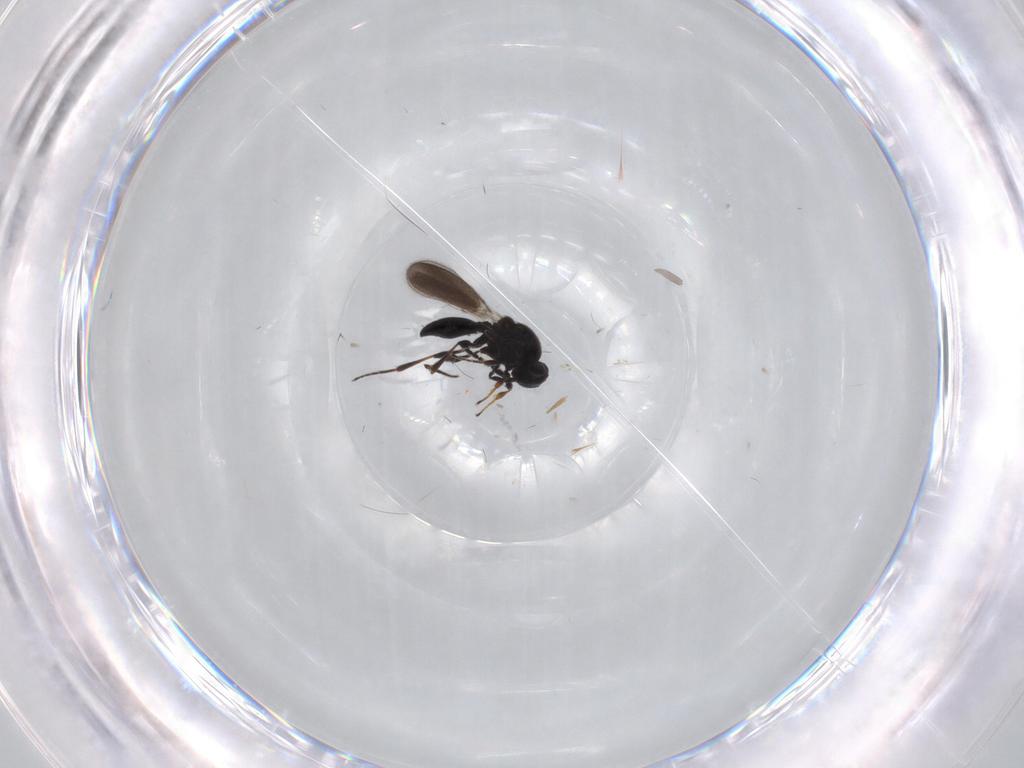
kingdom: Animalia
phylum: Arthropoda
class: Insecta
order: Hymenoptera
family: Platygastridae
